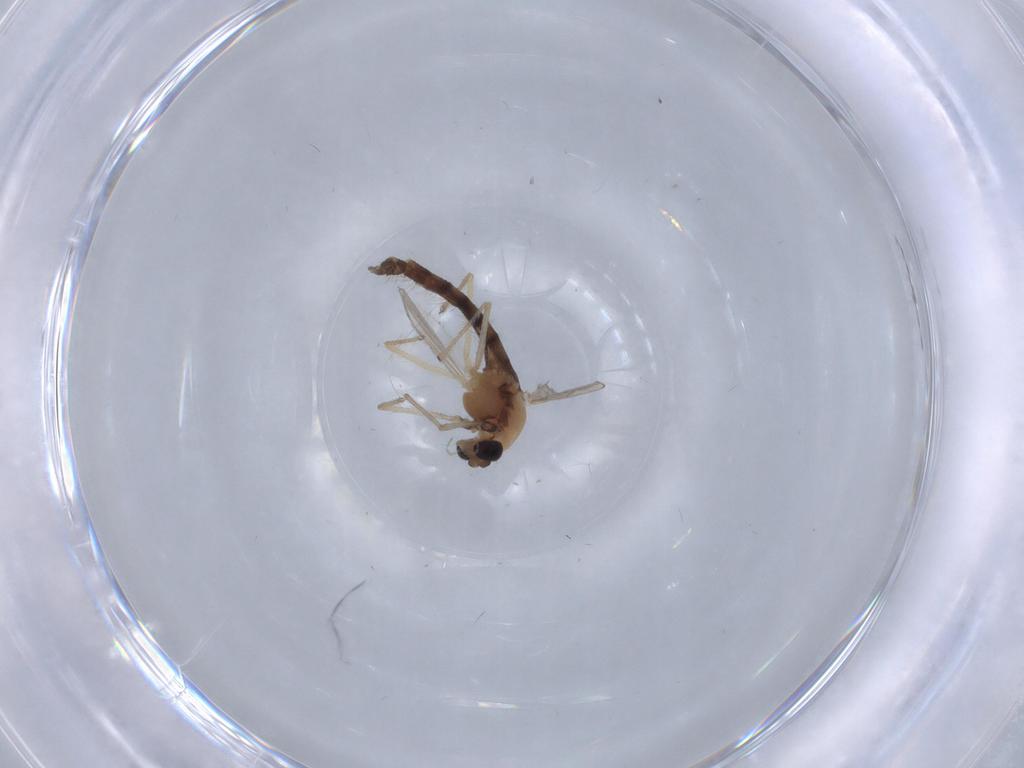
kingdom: Animalia
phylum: Arthropoda
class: Insecta
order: Diptera
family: Chironomidae
